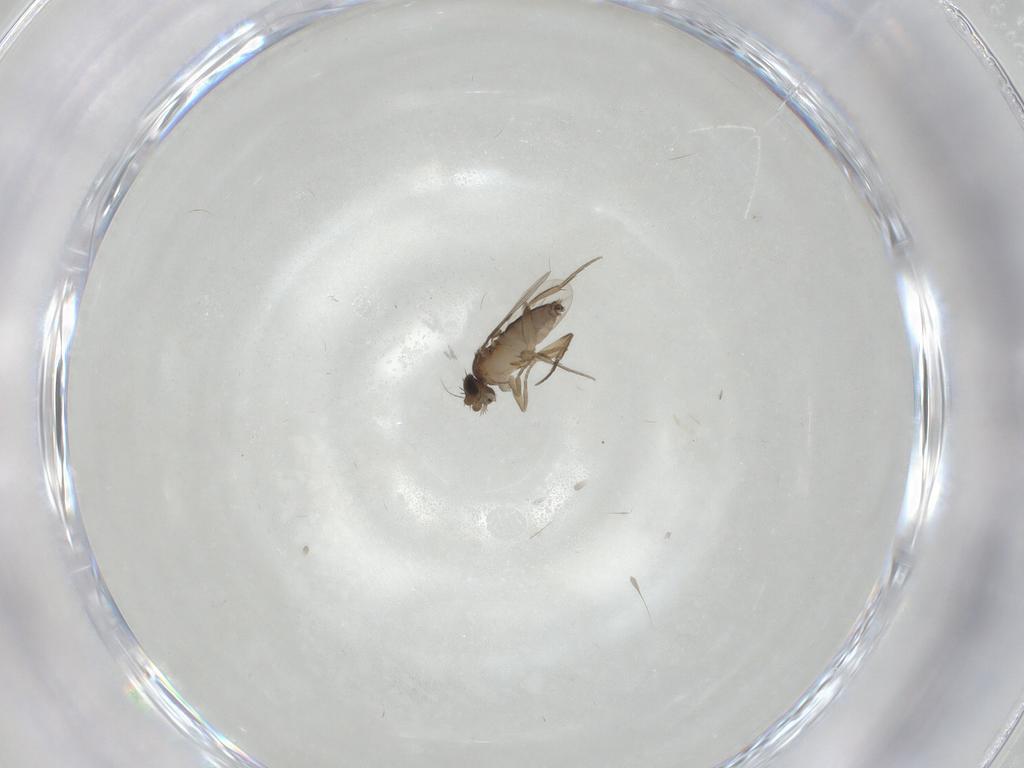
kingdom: Animalia
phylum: Arthropoda
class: Insecta
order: Diptera
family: Phoridae
